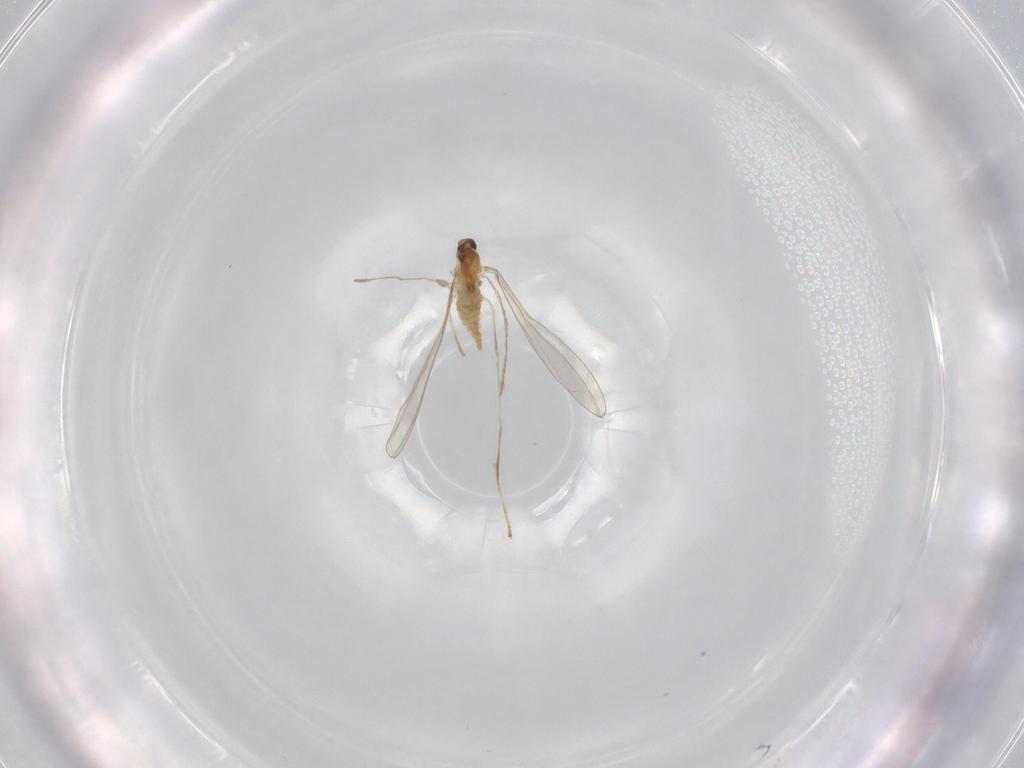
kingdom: Animalia
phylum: Arthropoda
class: Insecta
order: Diptera
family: Cecidomyiidae
